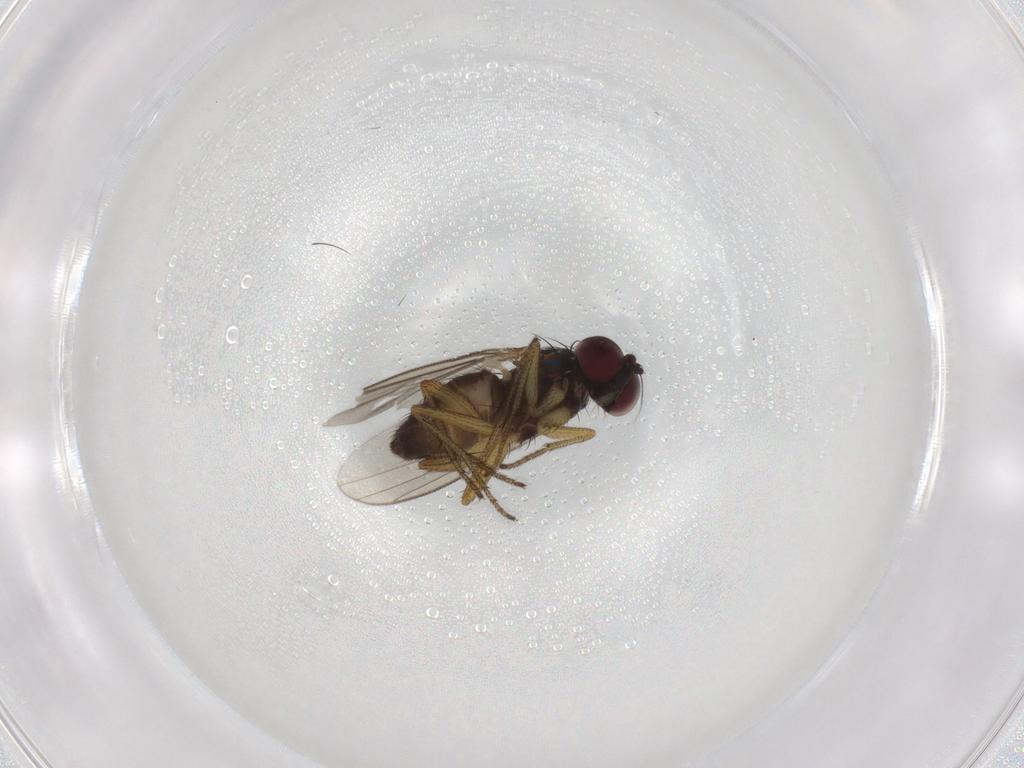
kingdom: Animalia
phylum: Arthropoda
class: Insecta
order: Diptera
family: Dolichopodidae
